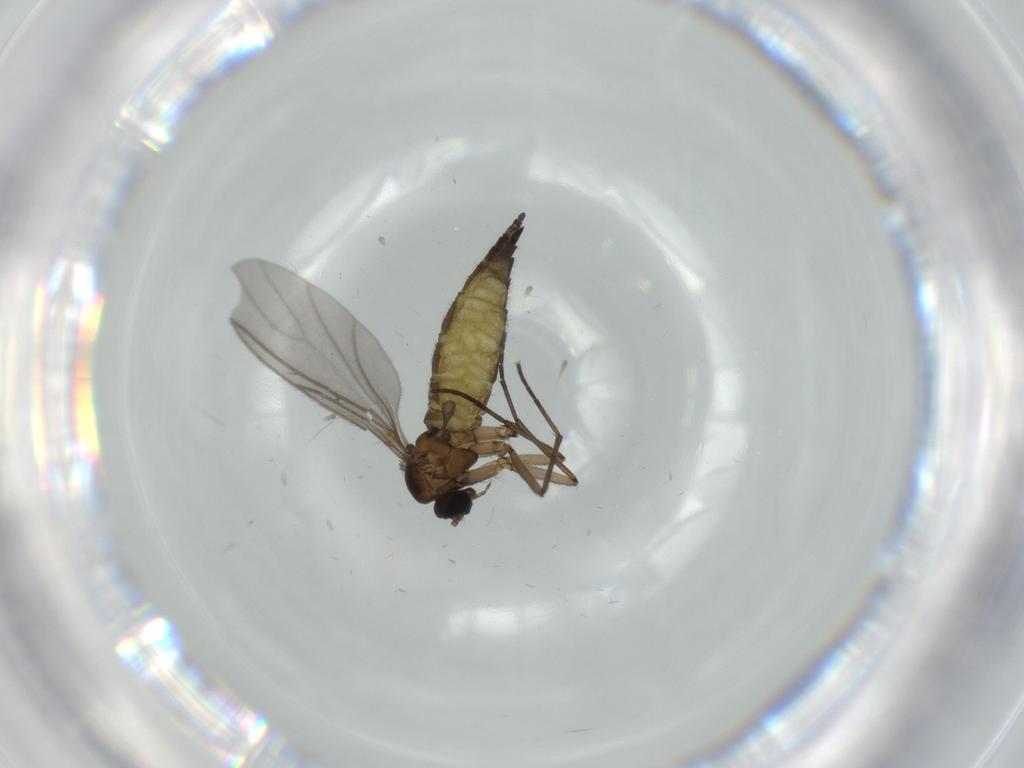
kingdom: Animalia
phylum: Arthropoda
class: Insecta
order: Diptera
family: Sciaridae
